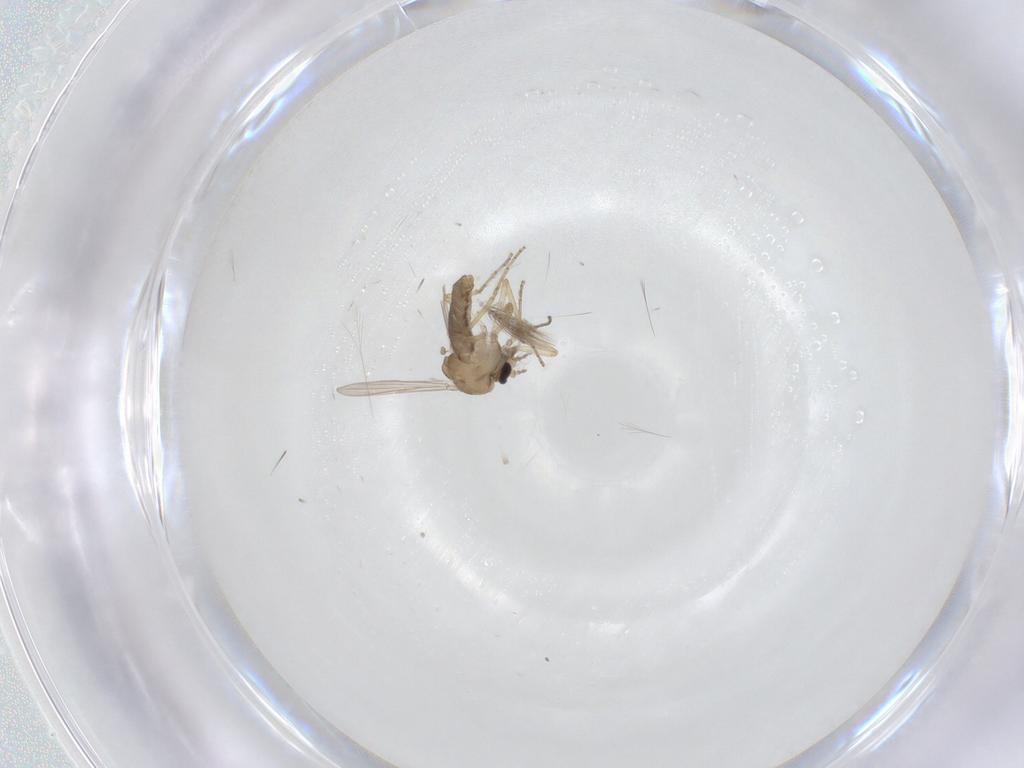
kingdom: Animalia
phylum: Arthropoda
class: Insecta
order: Diptera
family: Ceratopogonidae
